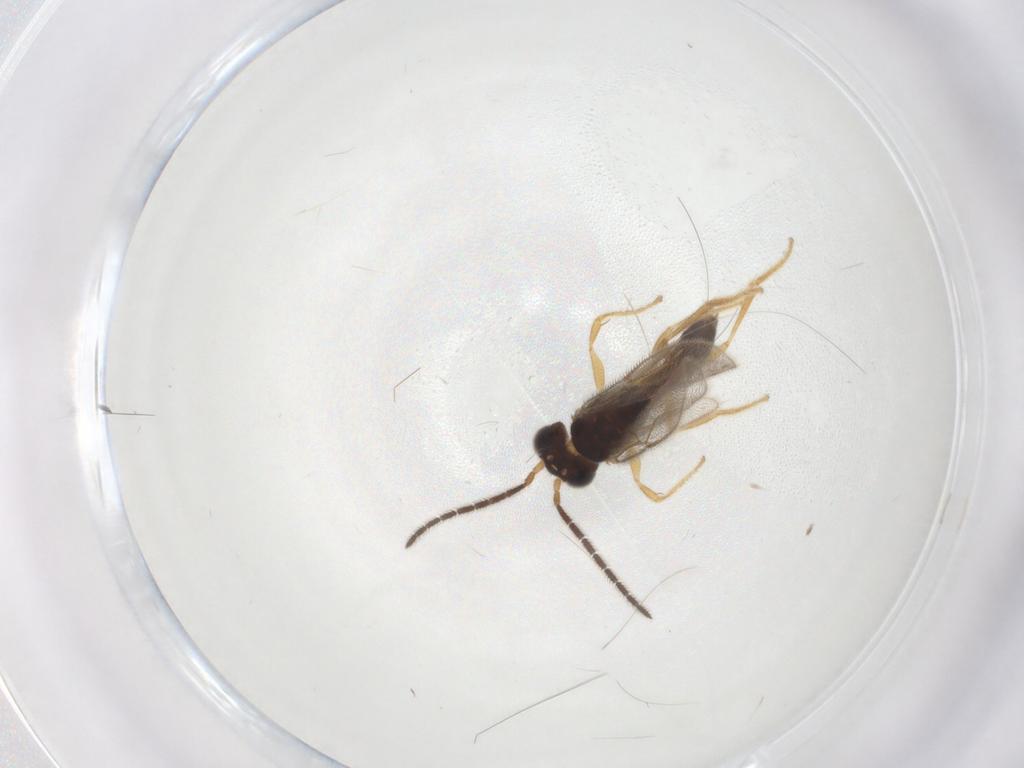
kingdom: Animalia
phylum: Arthropoda
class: Insecta
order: Hymenoptera
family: Dryinidae
